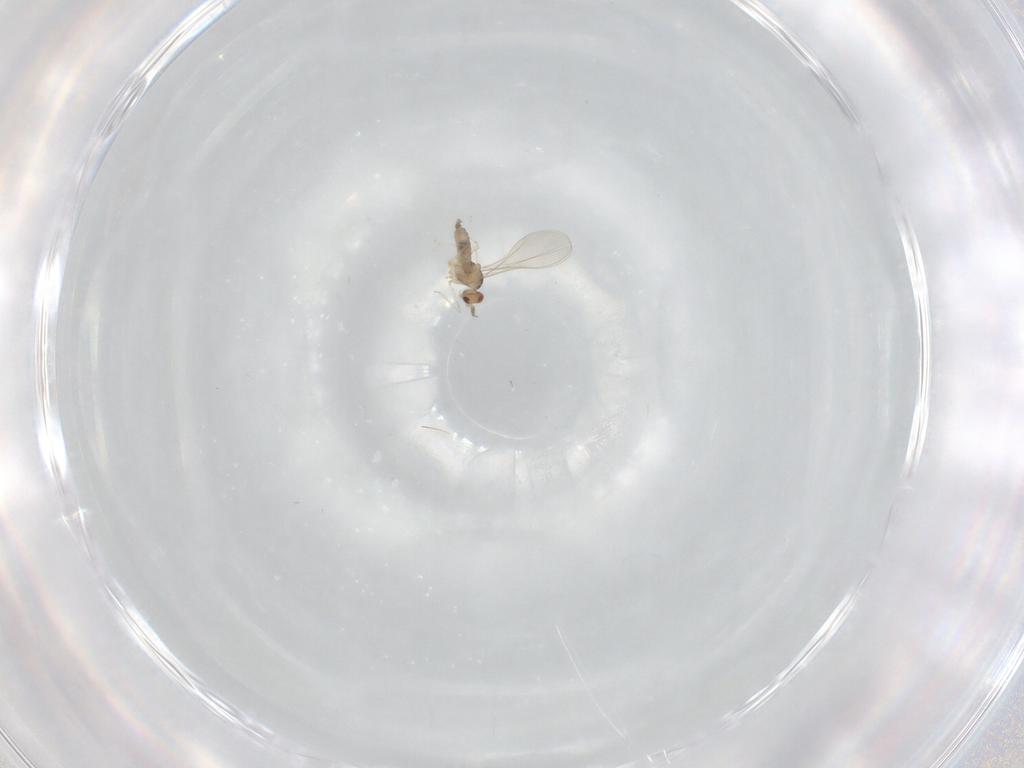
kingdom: Animalia
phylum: Arthropoda
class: Insecta
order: Diptera
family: Cecidomyiidae
